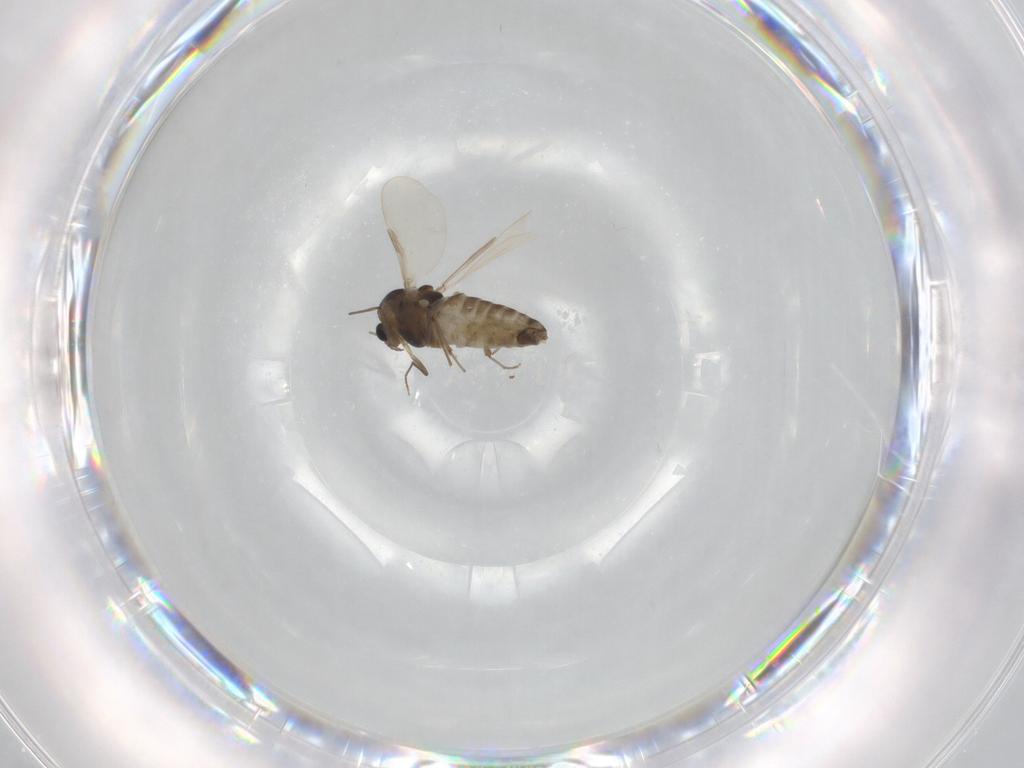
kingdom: Animalia
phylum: Arthropoda
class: Insecta
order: Diptera
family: Chironomidae
